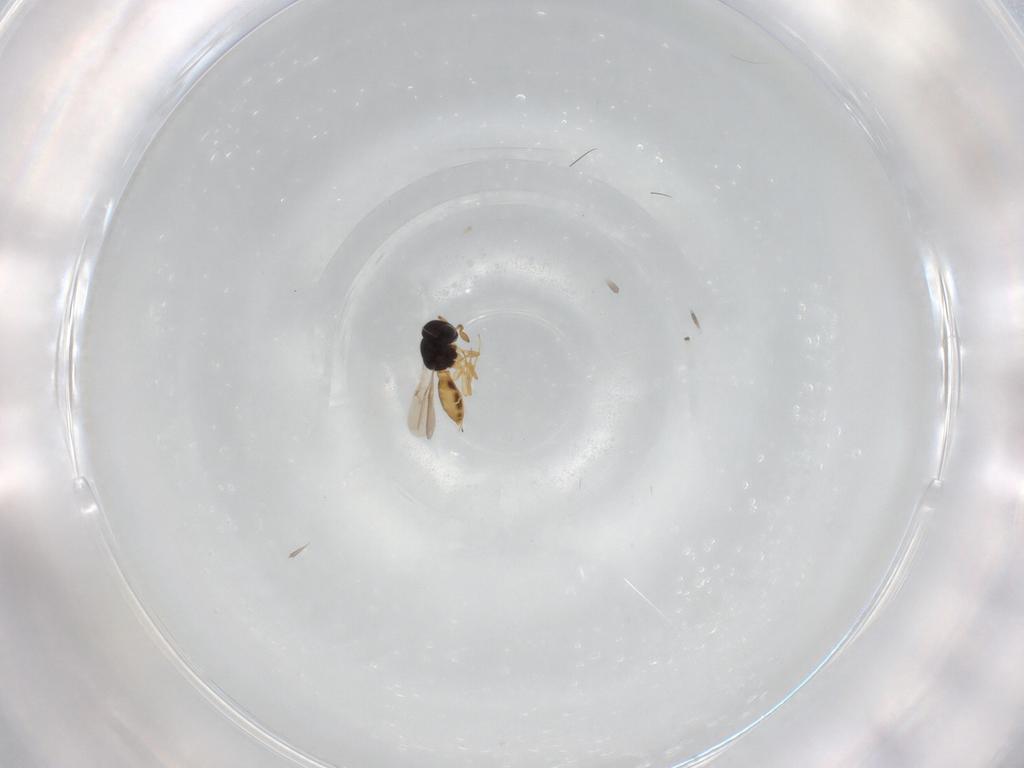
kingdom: Animalia
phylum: Arthropoda
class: Insecta
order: Hymenoptera
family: Scelionidae
